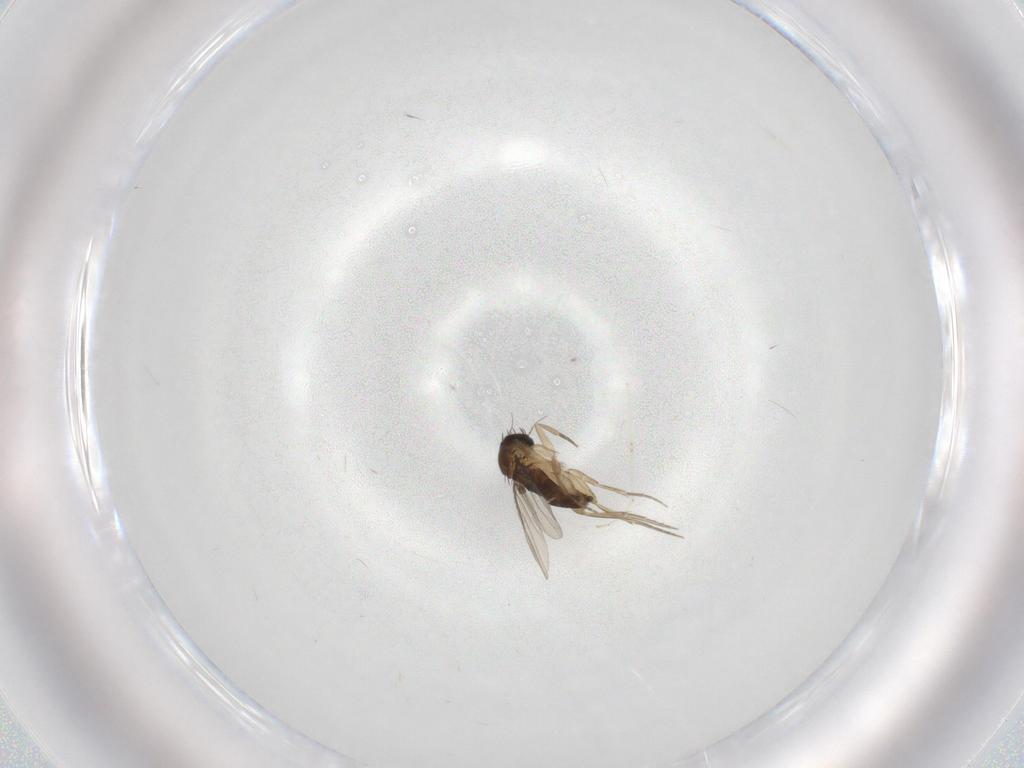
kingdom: Animalia
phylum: Arthropoda
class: Insecta
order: Diptera
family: Phoridae
